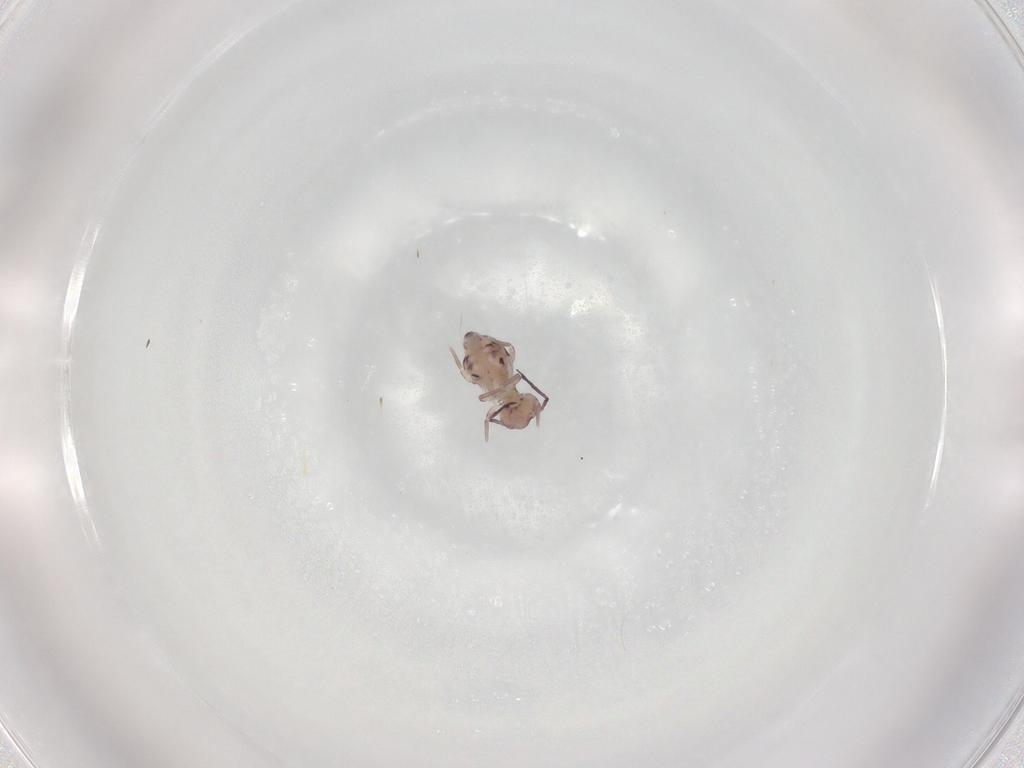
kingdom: Animalia
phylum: Arthropoda
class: Collembola
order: Symphypleona
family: Dicyrtomidae
